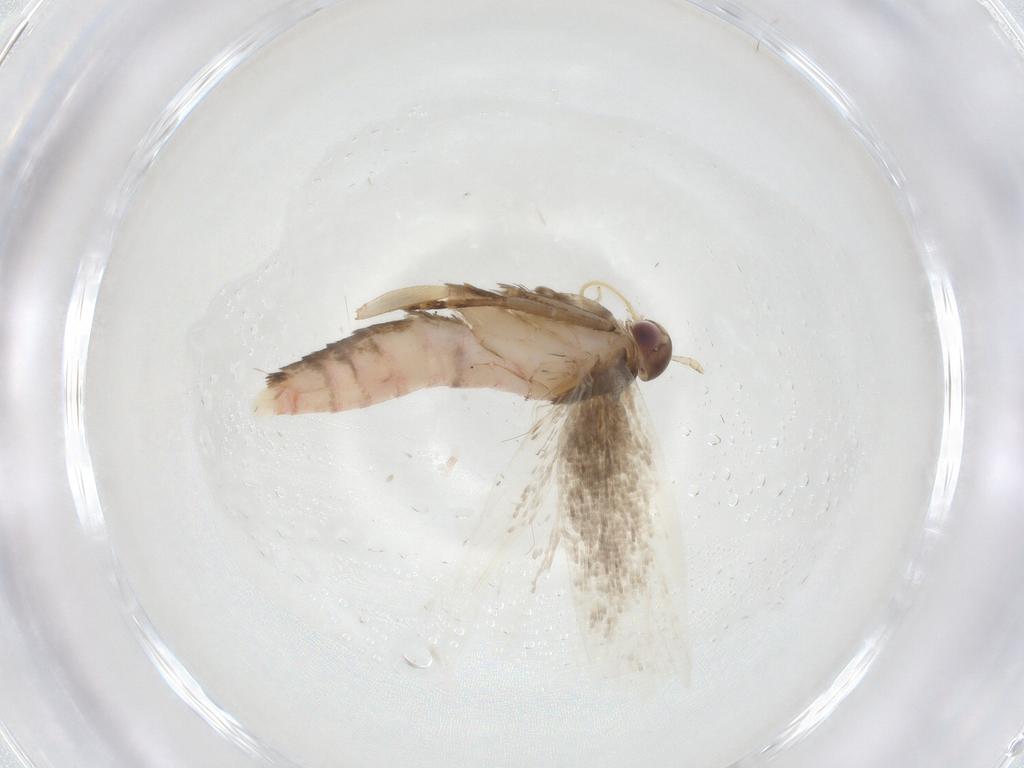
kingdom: Animalia
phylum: Arthropoda
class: Insecta
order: Lepidoptera
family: Gelechiidae
